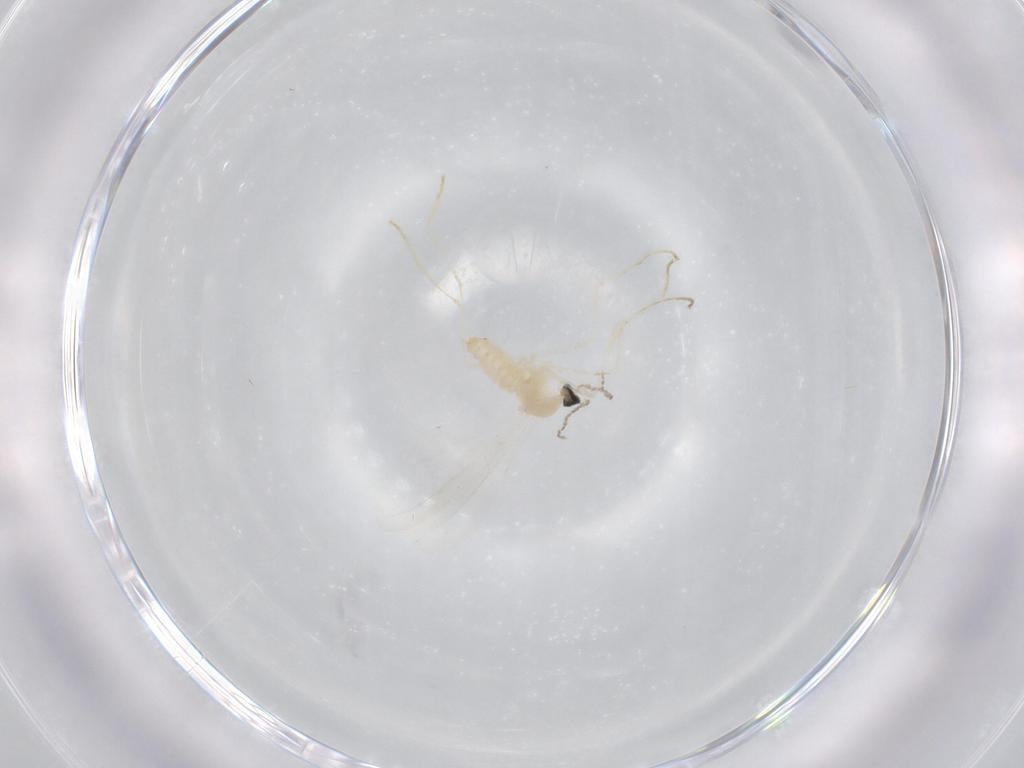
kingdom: Animalia
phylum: Arthropoda
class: Insecta
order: Diptera
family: Cecidomyiidae
